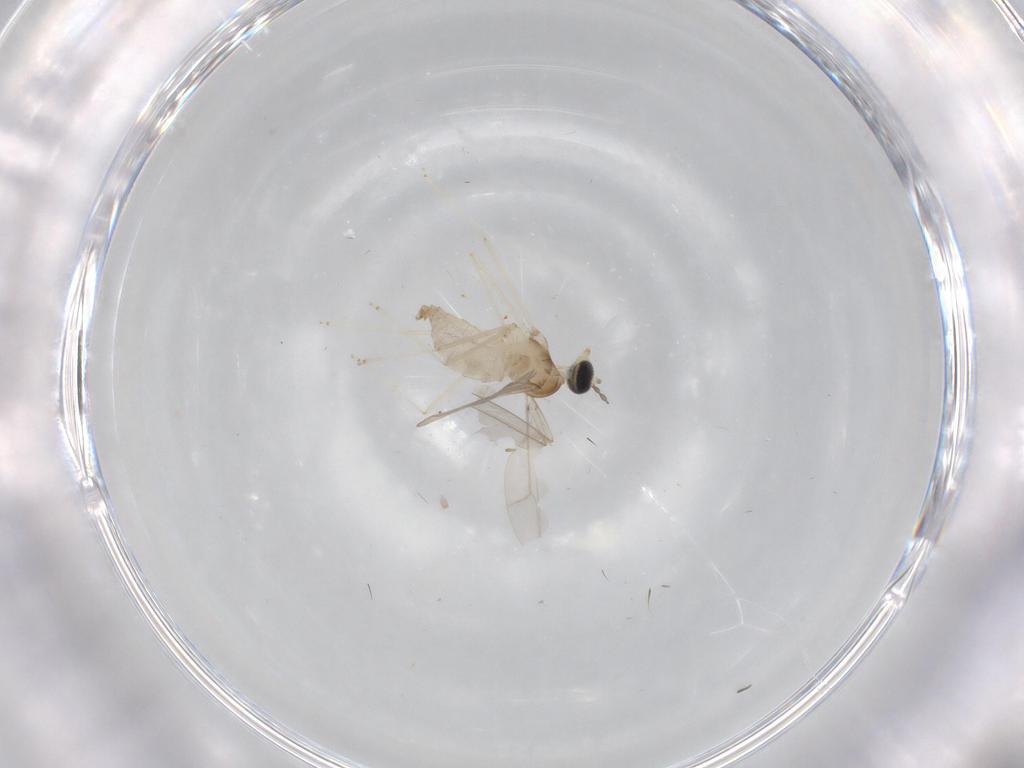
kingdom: Animalia
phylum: Arthropoda
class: Insecta
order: Diptera
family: Cecidomyiidae
